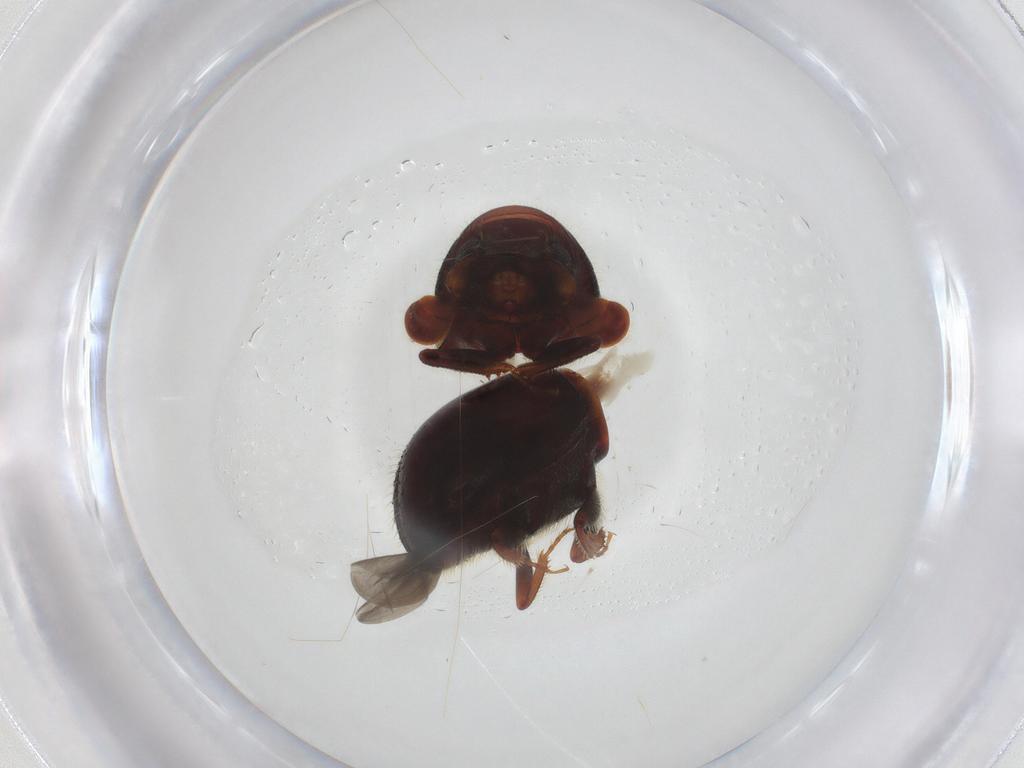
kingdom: Animalia
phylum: Arthropoda
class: Insecta
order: Coleoptera
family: Curculionidae
